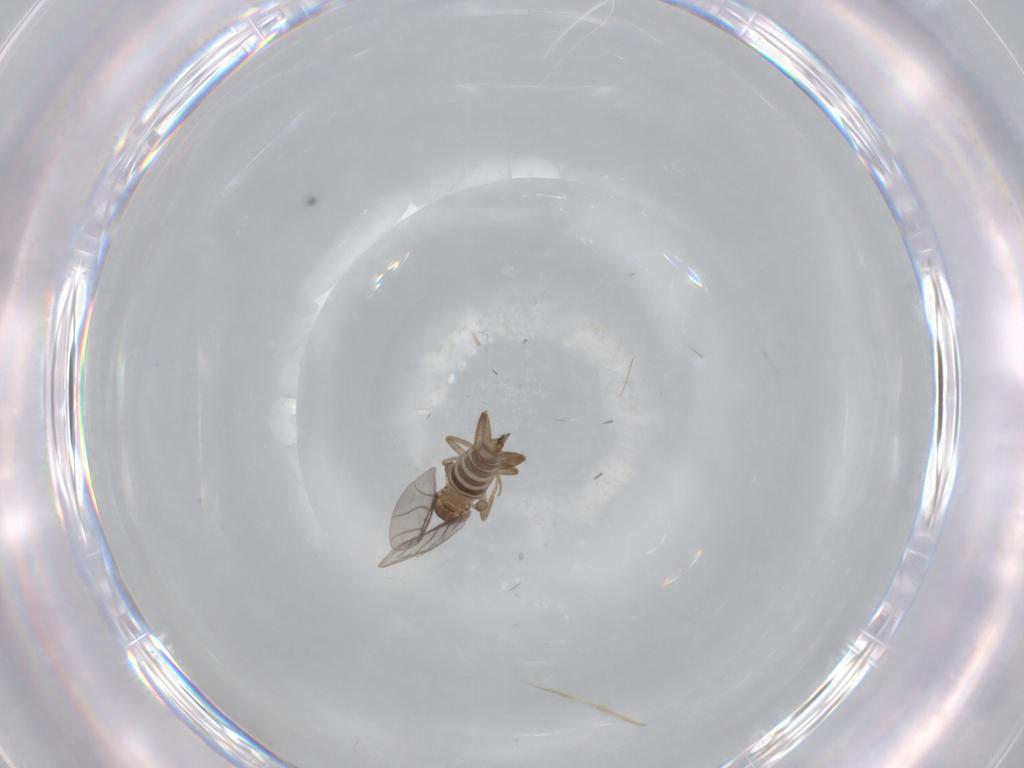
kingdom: Animalia
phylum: Arthropoda
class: Insecta
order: Diptera
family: Sphaeroceridae
